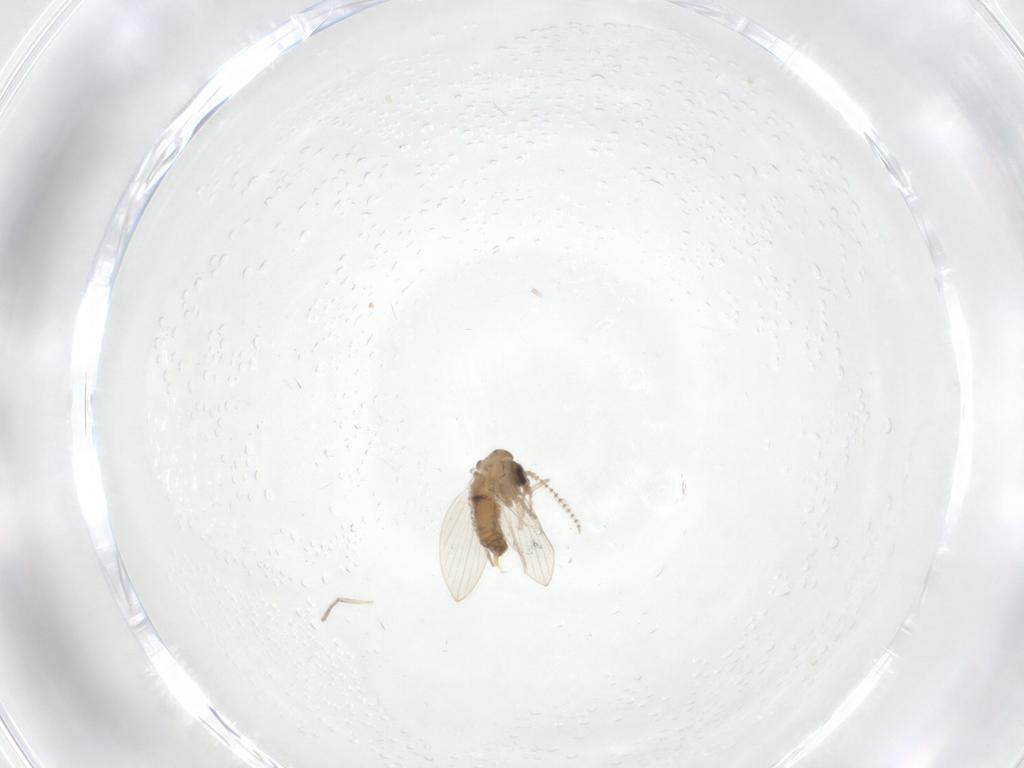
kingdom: Animalia
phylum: Arthropoda
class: Insecta
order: Diptera
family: Psychodidae
